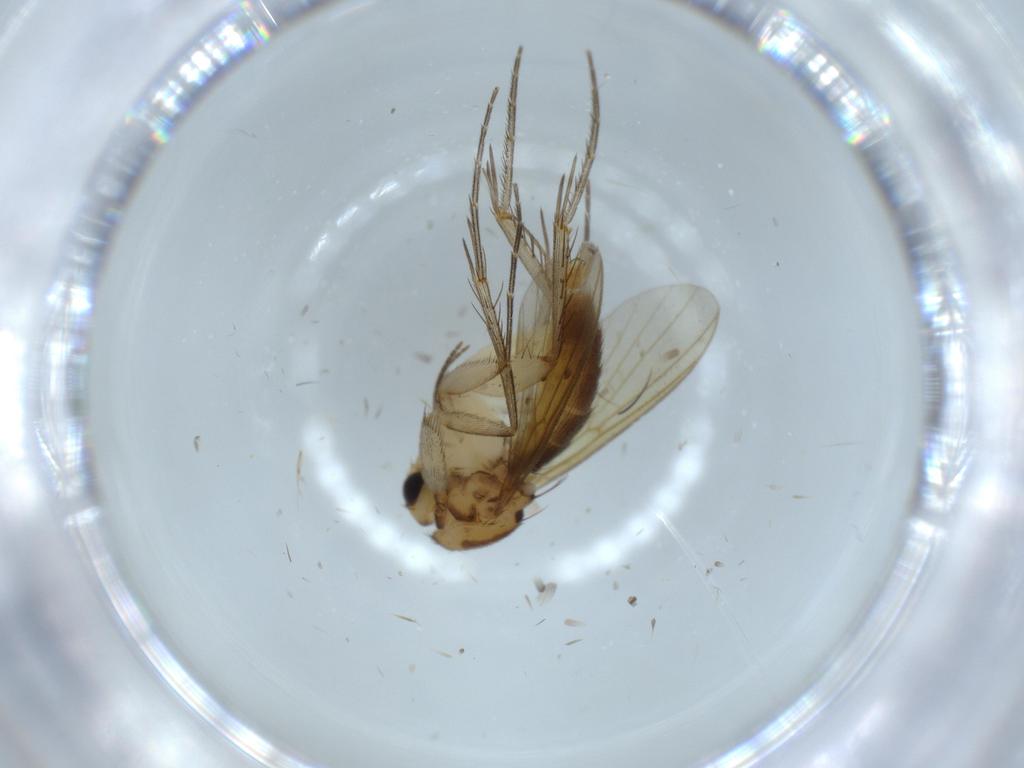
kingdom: Animalia
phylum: Arthropoda
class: Insecta
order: Diptera
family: Mycetophilidae
